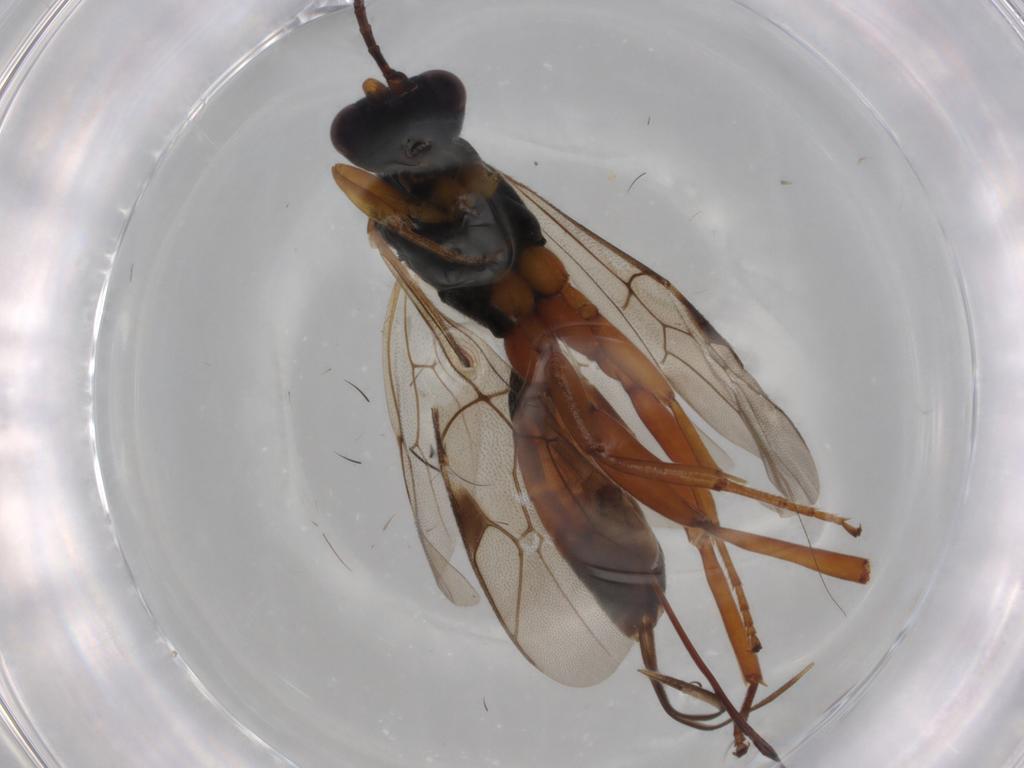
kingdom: Animalia
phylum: Arthropoda
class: Insecta
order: Hymenoptera
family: Formicidae
